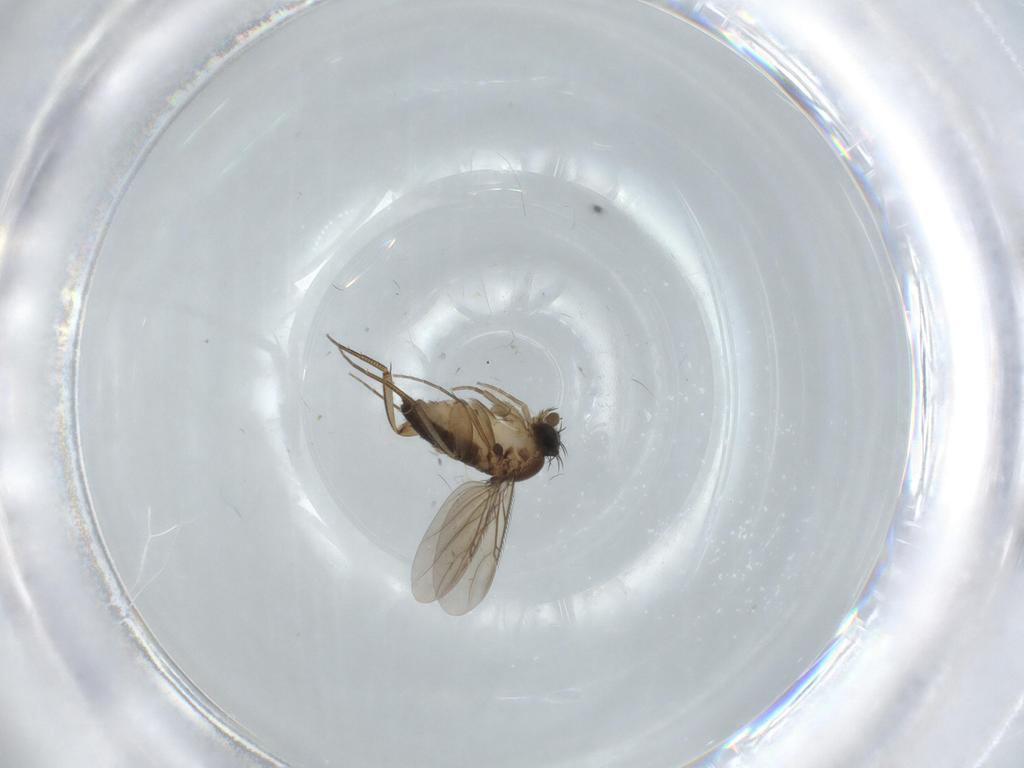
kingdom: Animalia
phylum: Arthropoda
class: Insecta
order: Diptera
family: Phoridae
